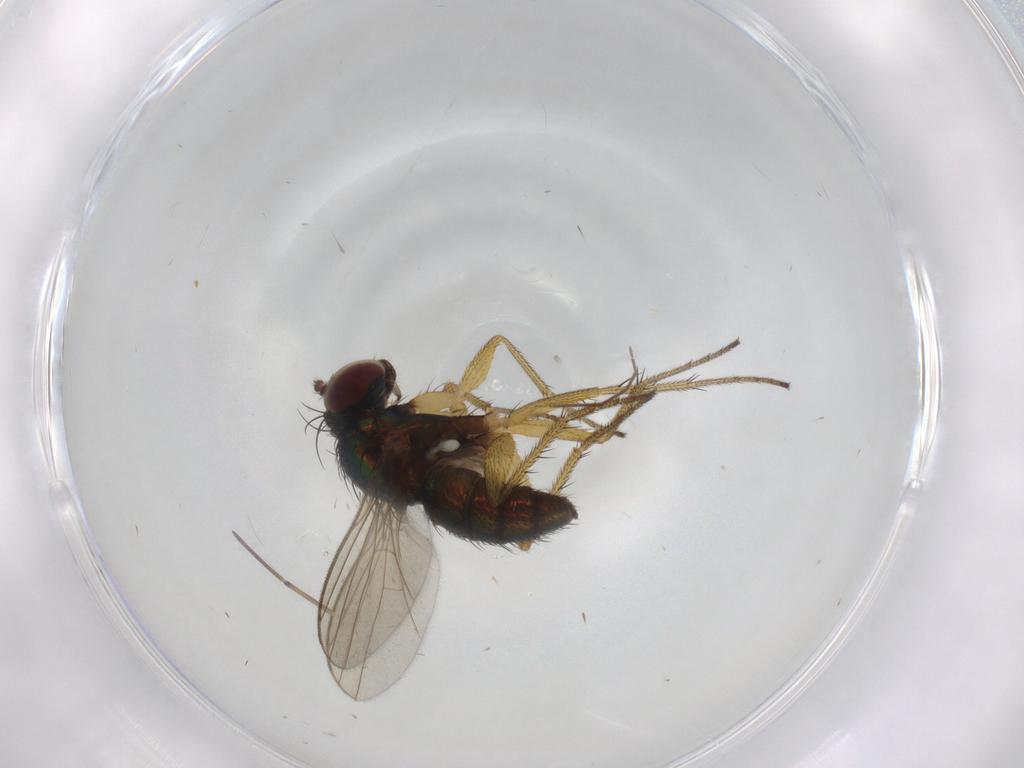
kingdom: Animalia
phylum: Arthropoda
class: Insecta
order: Diptera
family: Sciaridae
